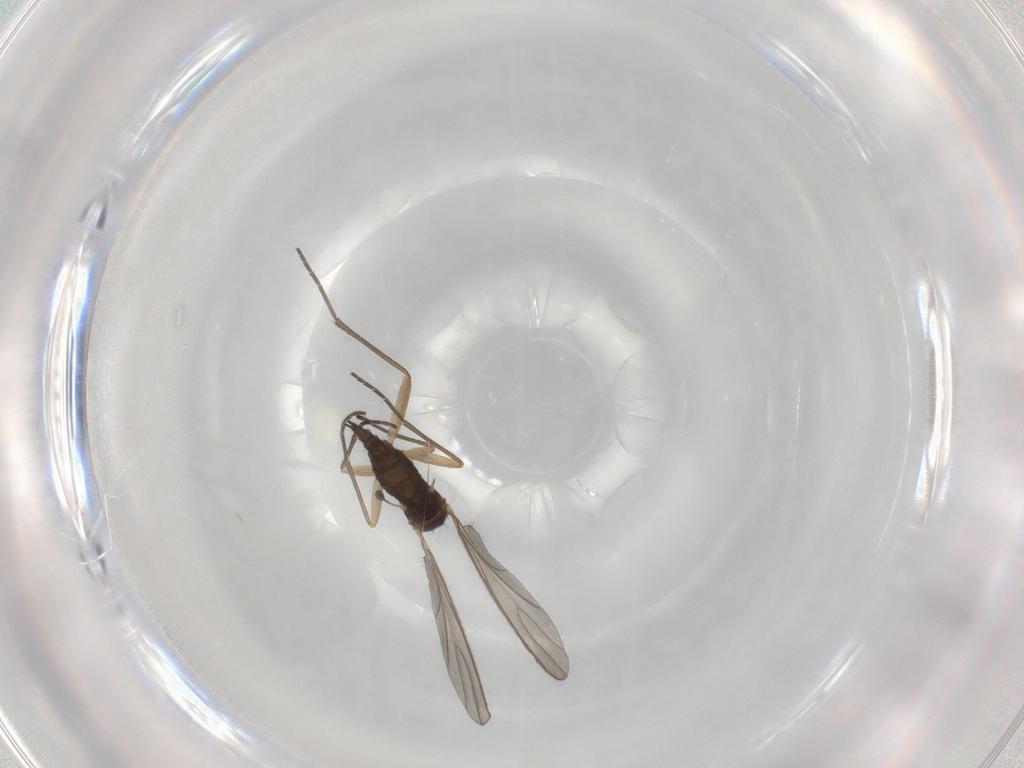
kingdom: Animalia
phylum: Arthropoda
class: Insecta
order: Diptera
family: Sciaridae
